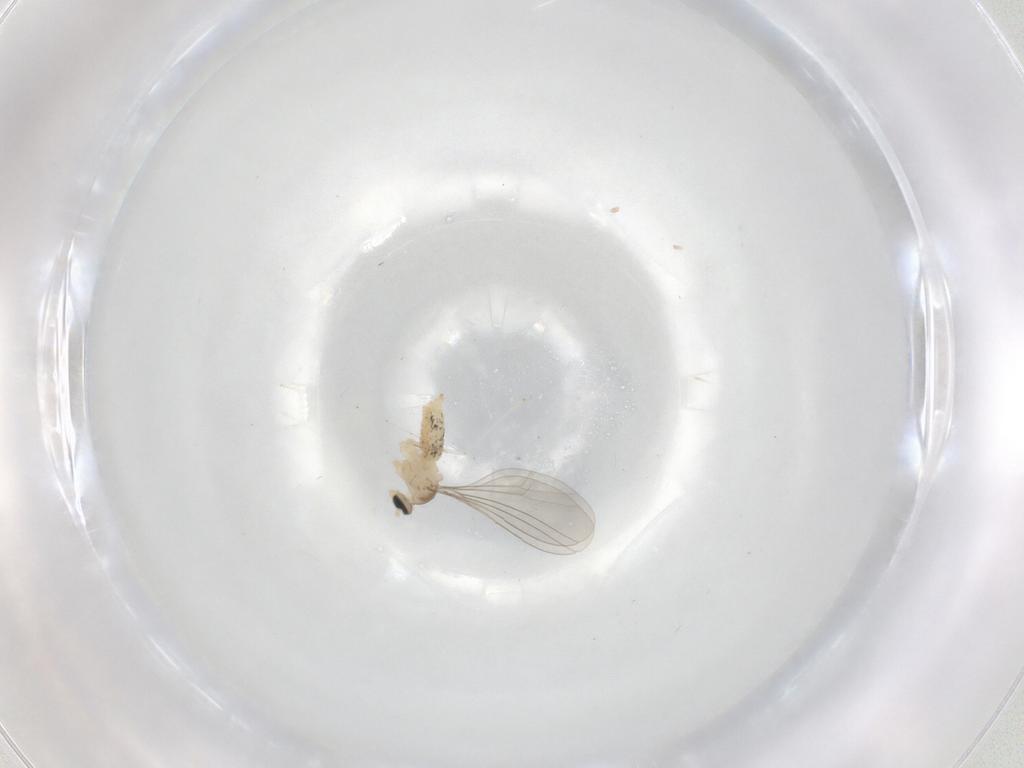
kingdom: Animalia
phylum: Arthropoda
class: Insecta
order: Diptera
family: Cecidomyiidae
